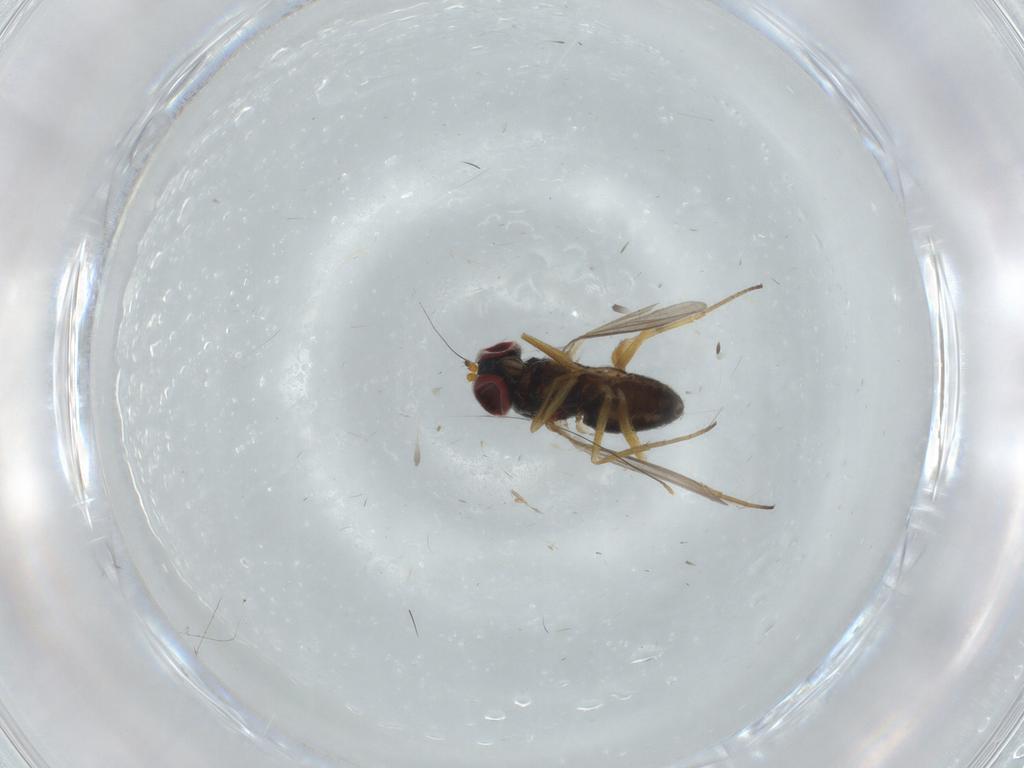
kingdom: Animalia
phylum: Arthropoda
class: Insecta
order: Diptera
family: Dolichopodidae
